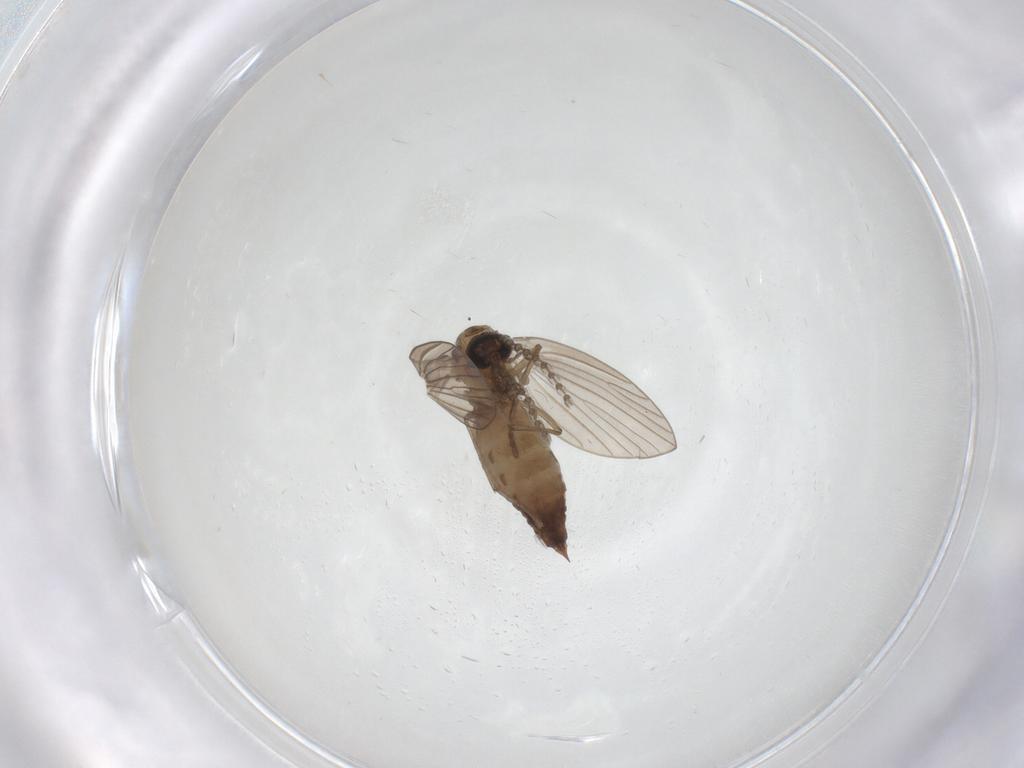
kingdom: Animalia
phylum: Arthropoda
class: Insecta
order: Diptera
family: Psychodidae
